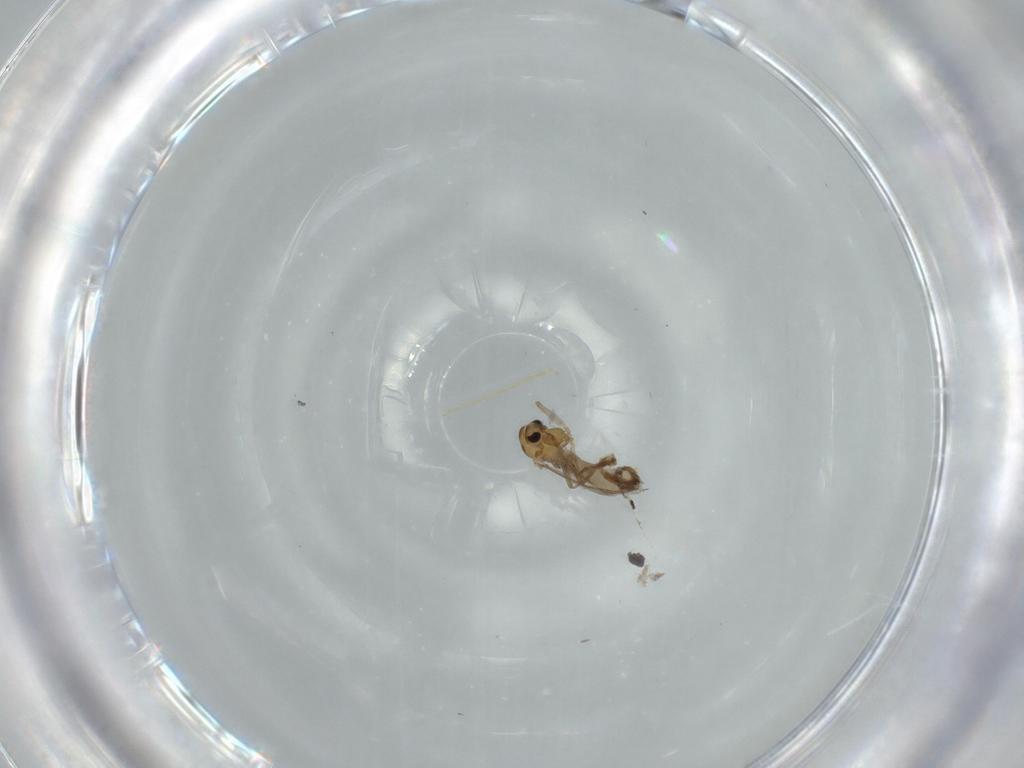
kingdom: Animalia
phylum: Arthropoda
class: Insecta
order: Diptera
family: Chironomidae
